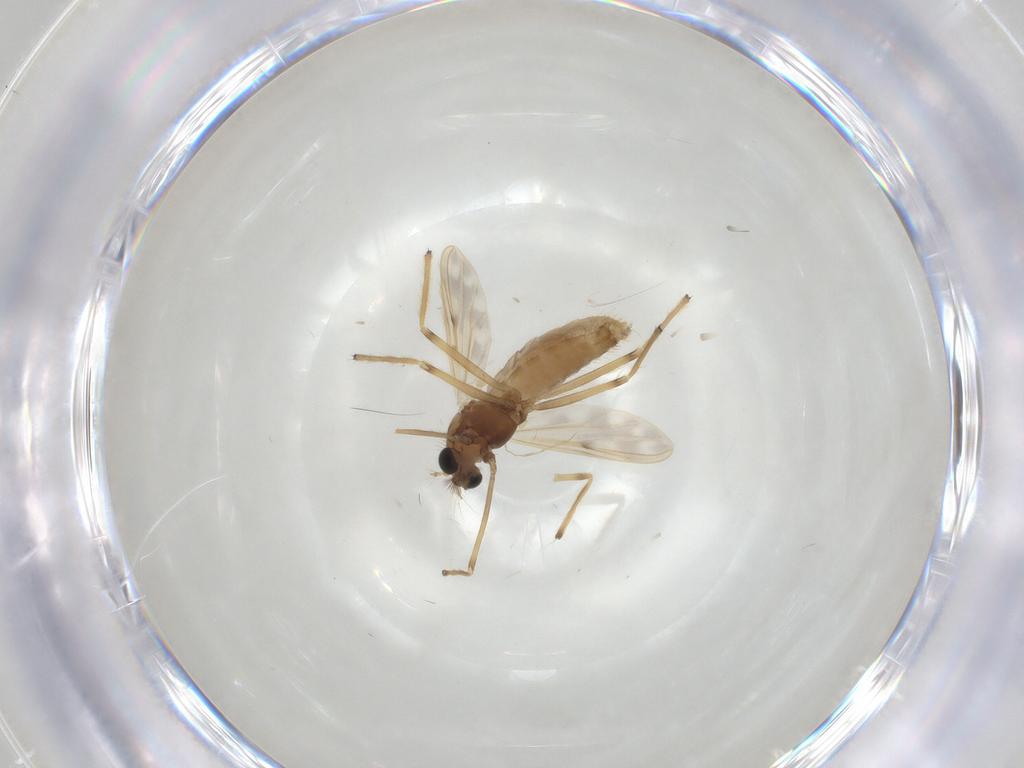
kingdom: Animalia
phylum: Arthropoda
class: Insecta
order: Diptera
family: Chironomidae
